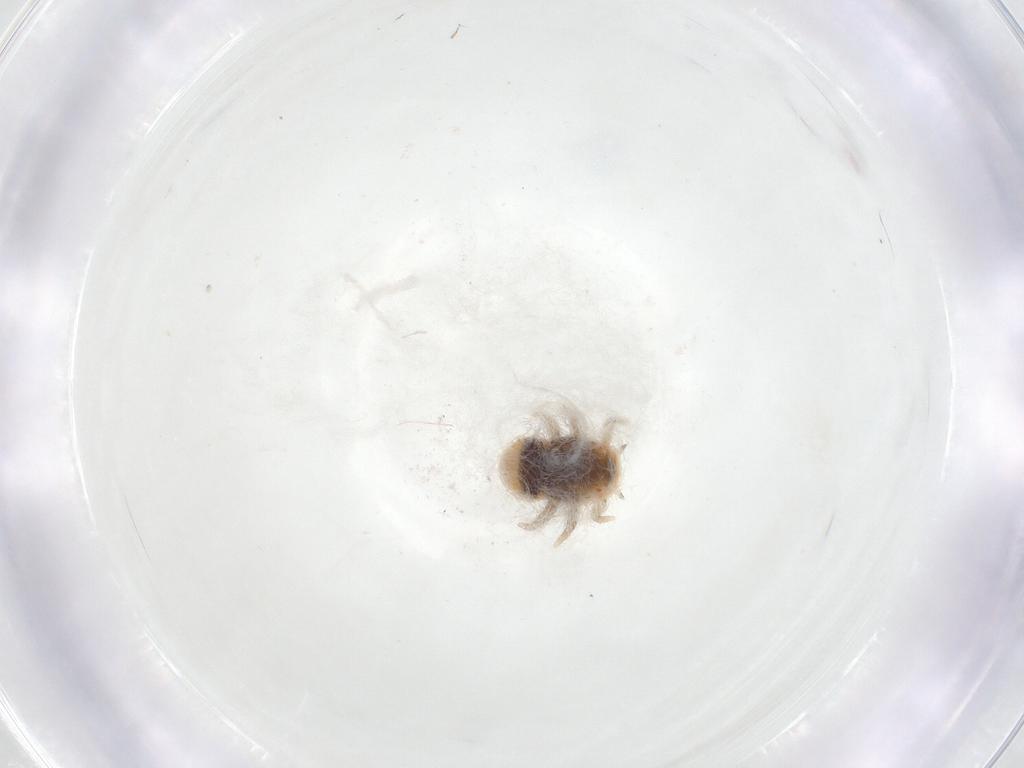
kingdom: Animalia
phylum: Arthropoda
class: Insecta
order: Hemiptera
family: Triozidae
